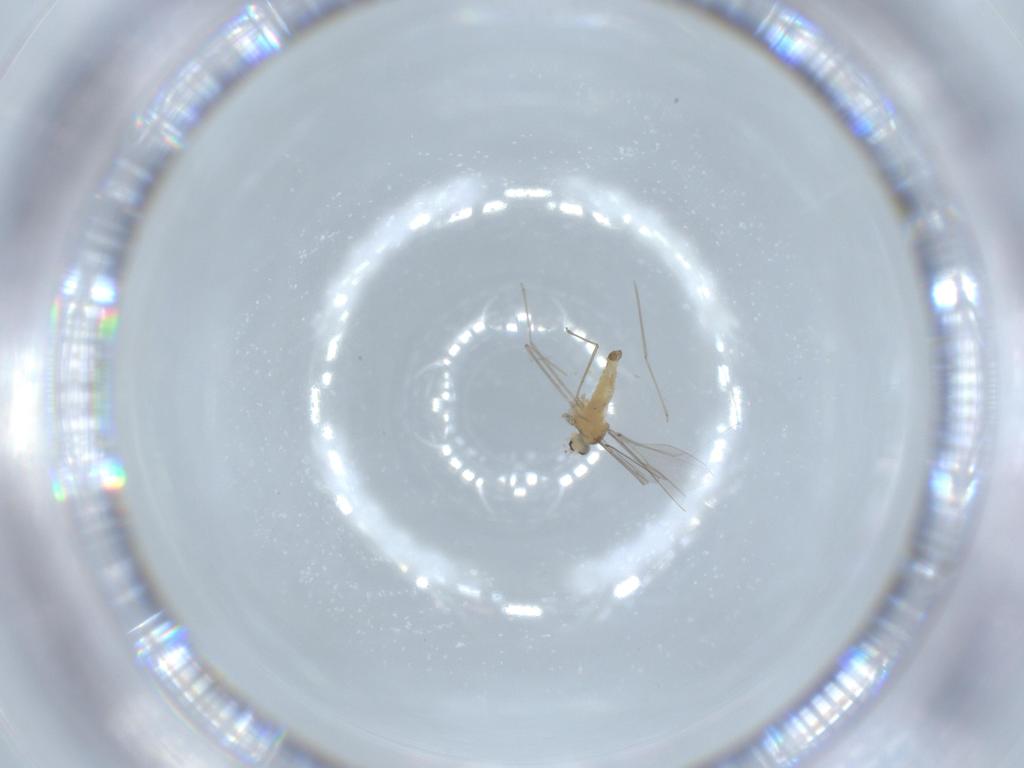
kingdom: Animalia
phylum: Arthropoda
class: Insecta
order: Diptera
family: Cecidomyiidae
